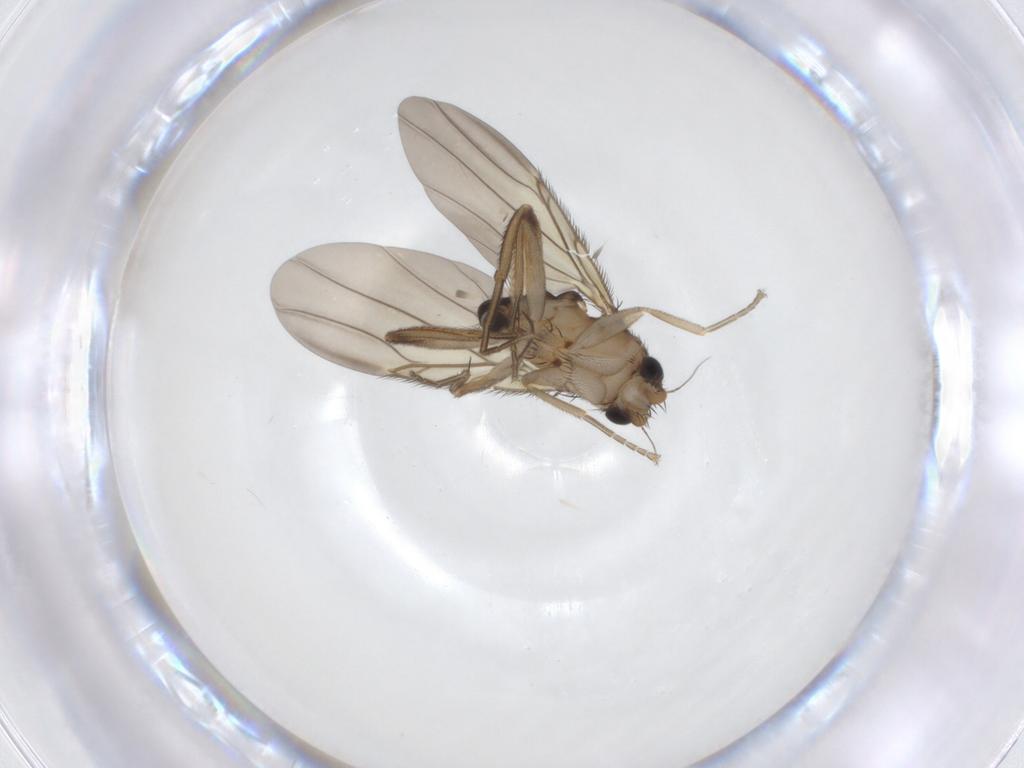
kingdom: Animalia
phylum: Arthropoda
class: Insecta
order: Diptera
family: Phoridae
